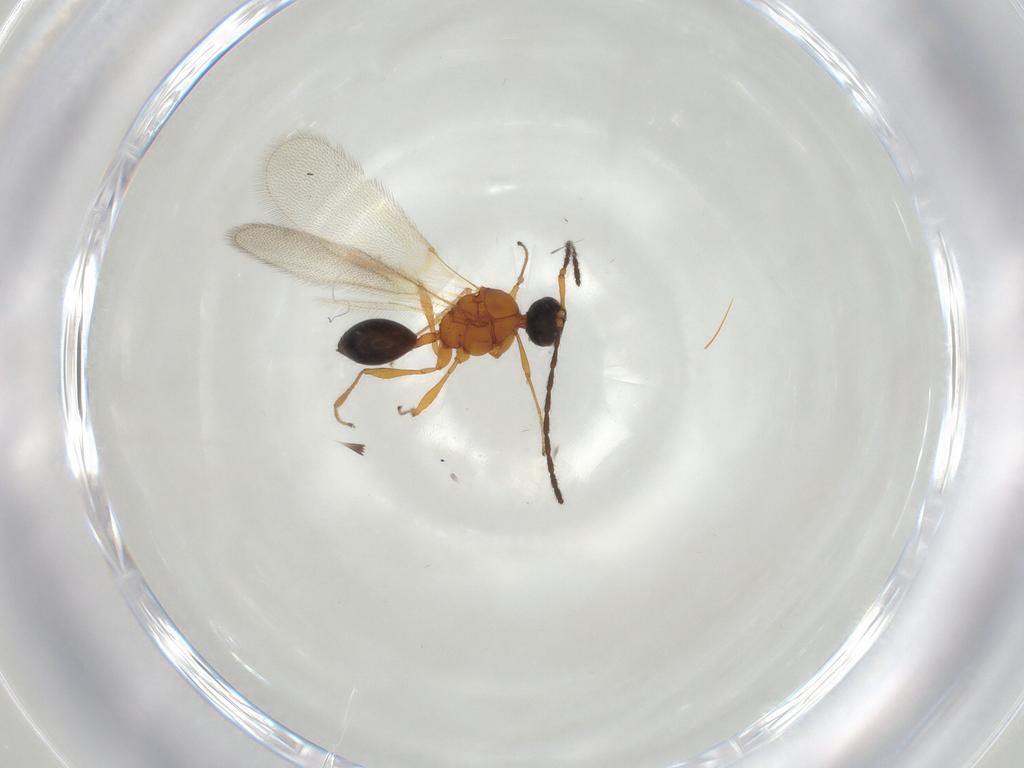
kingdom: Animalia
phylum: Arthropoda
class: Insecta
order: Hymenoptera
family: Diapriidae
